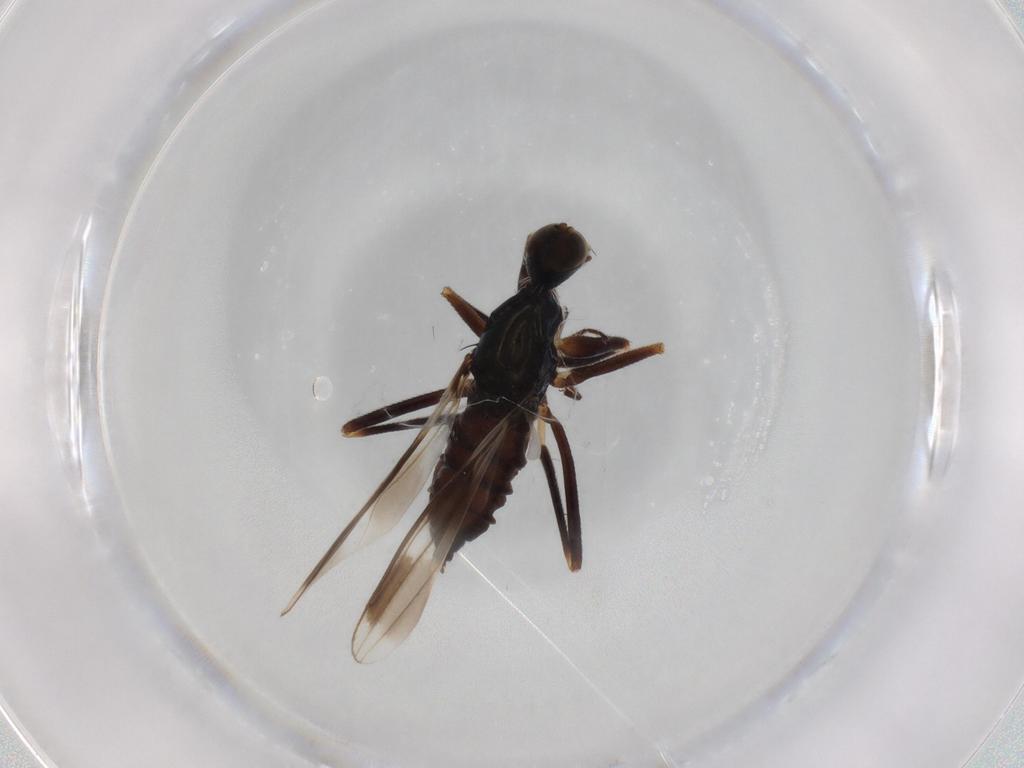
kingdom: Animalia
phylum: Arthropoda
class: Insecta
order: Diptera
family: Hybotidae
